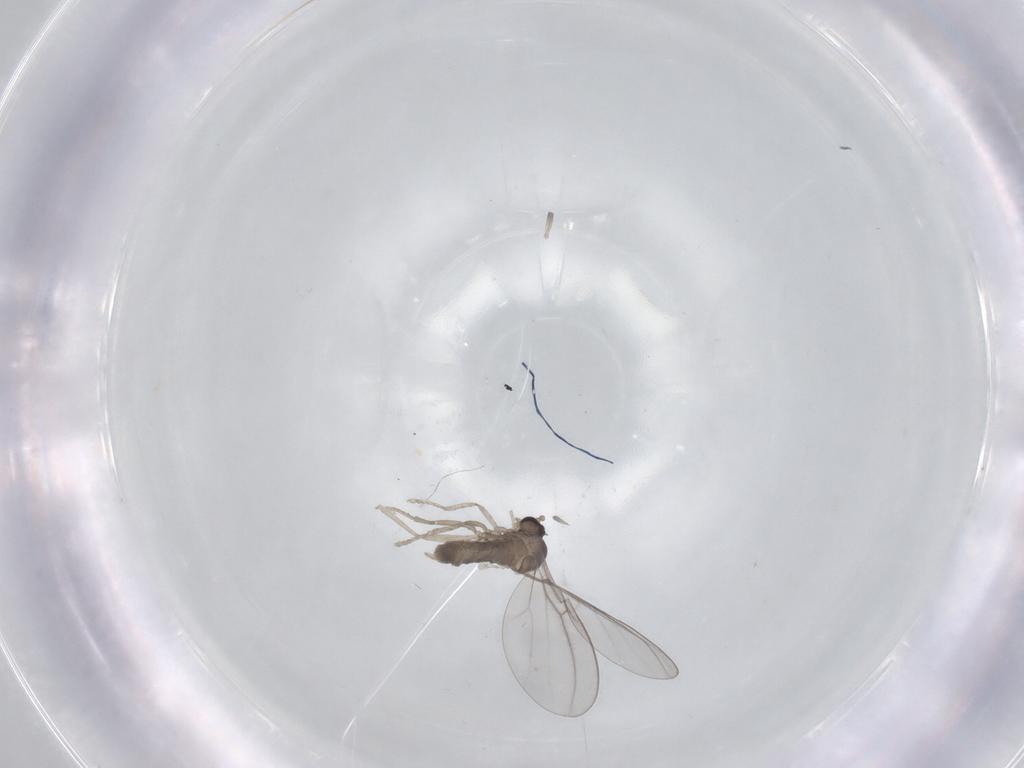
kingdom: Animalia
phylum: Arthropoda
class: Insecta
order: Diptera
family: Cecidomyiidae
